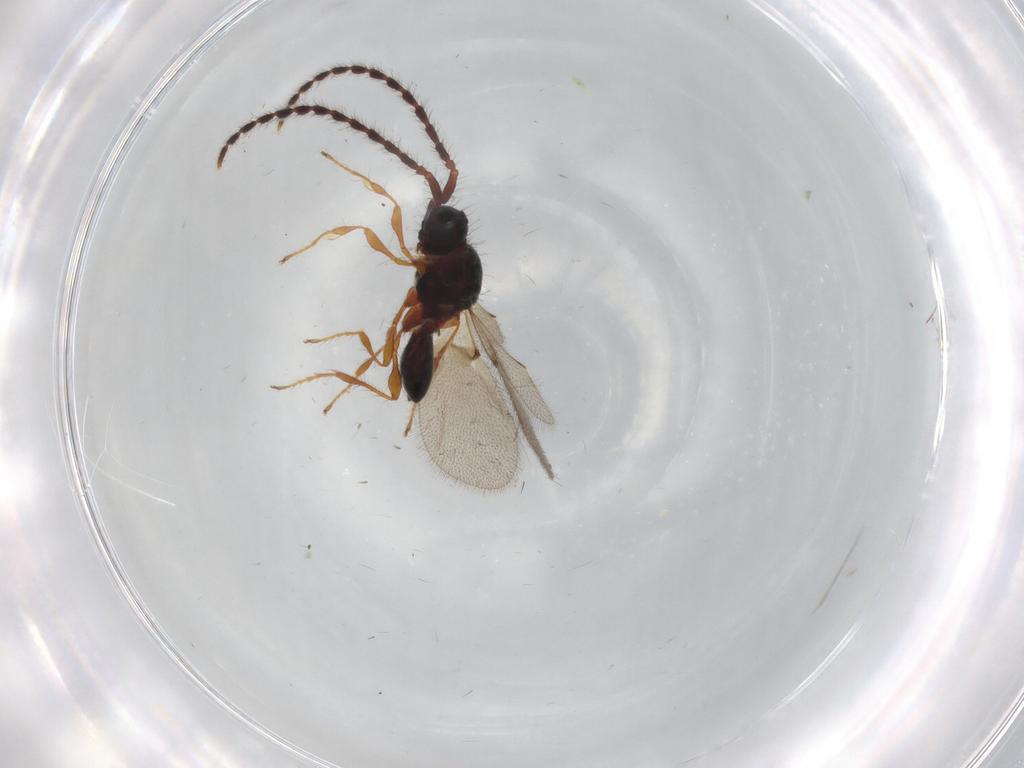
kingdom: Animalia
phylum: Arthropoda
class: Insecta
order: Hymenoptera
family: Diapriidae
